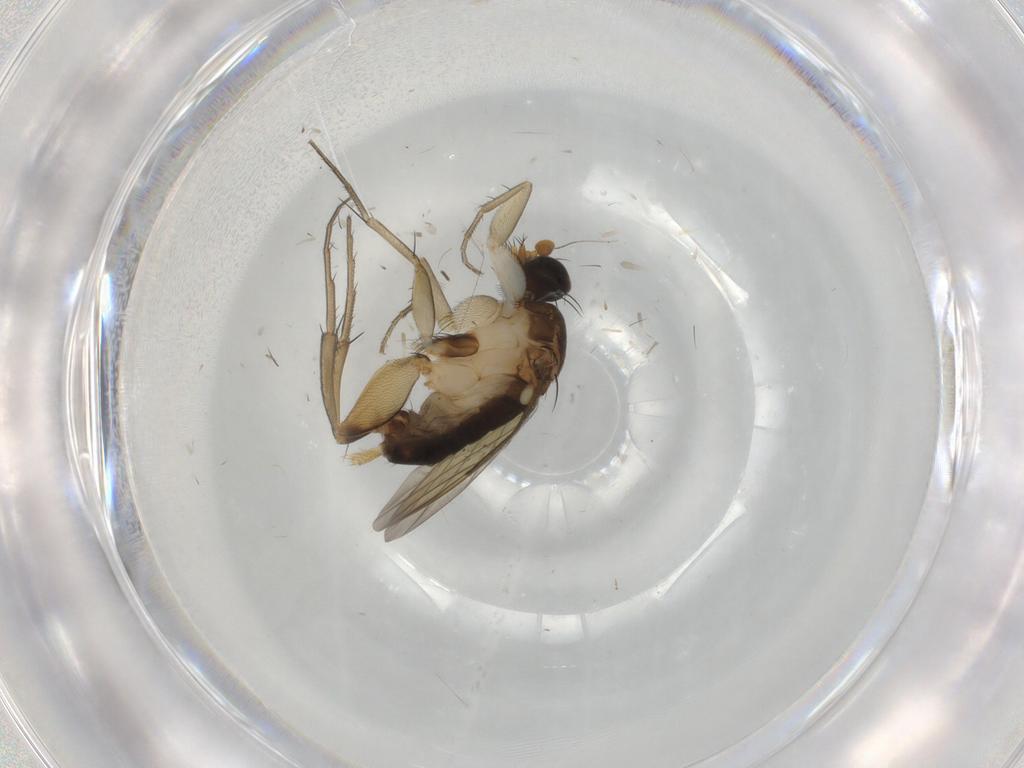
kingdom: Animalia
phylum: Arthropoda
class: Insecta
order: Diptera
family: Phoridae
